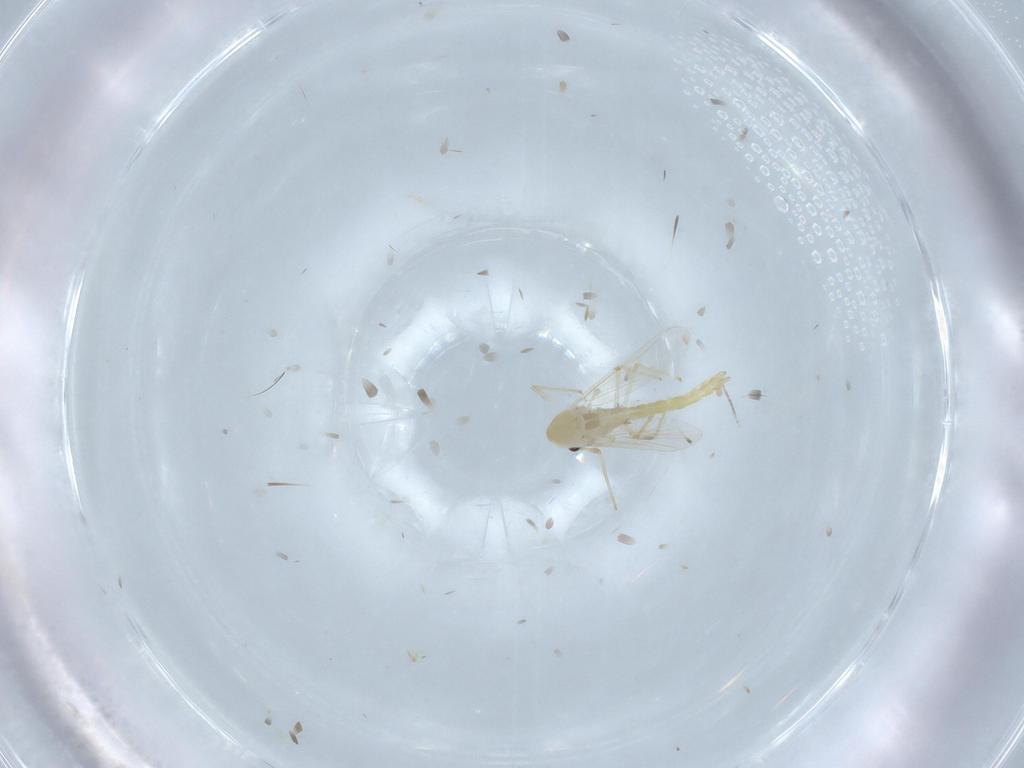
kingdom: Animalia
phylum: Arthropoda
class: Insecta
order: Diptera
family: Chironomidae
